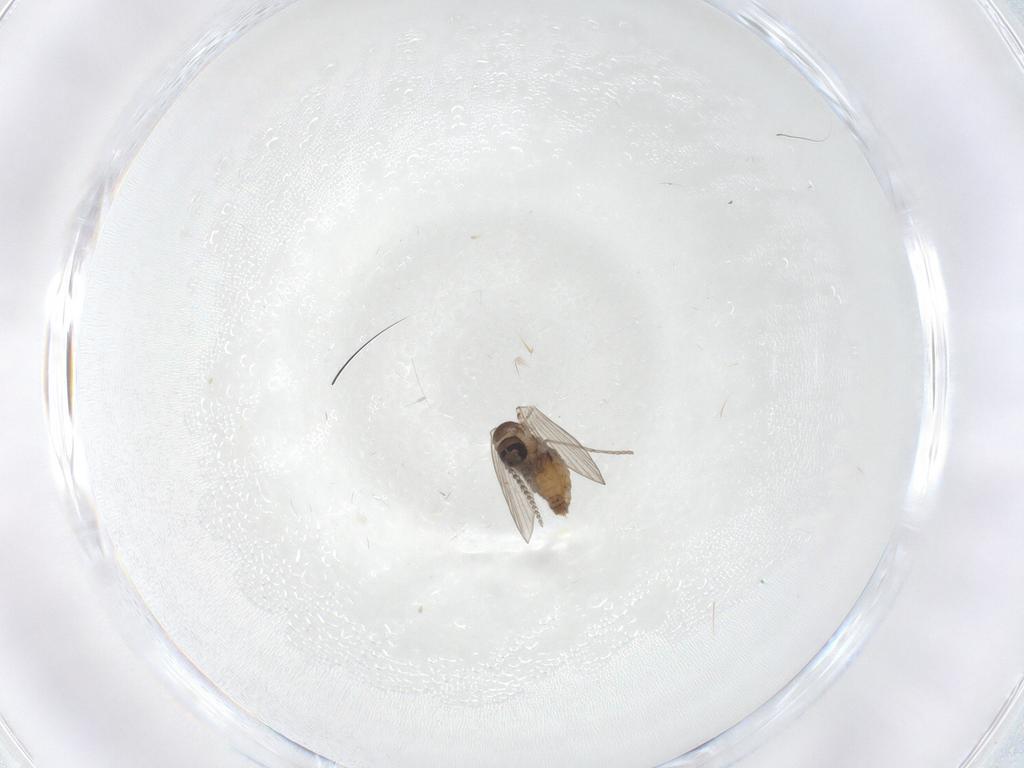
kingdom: Animalia
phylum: Arthropoda
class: Insecta
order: Diptera
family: Psychodidae
